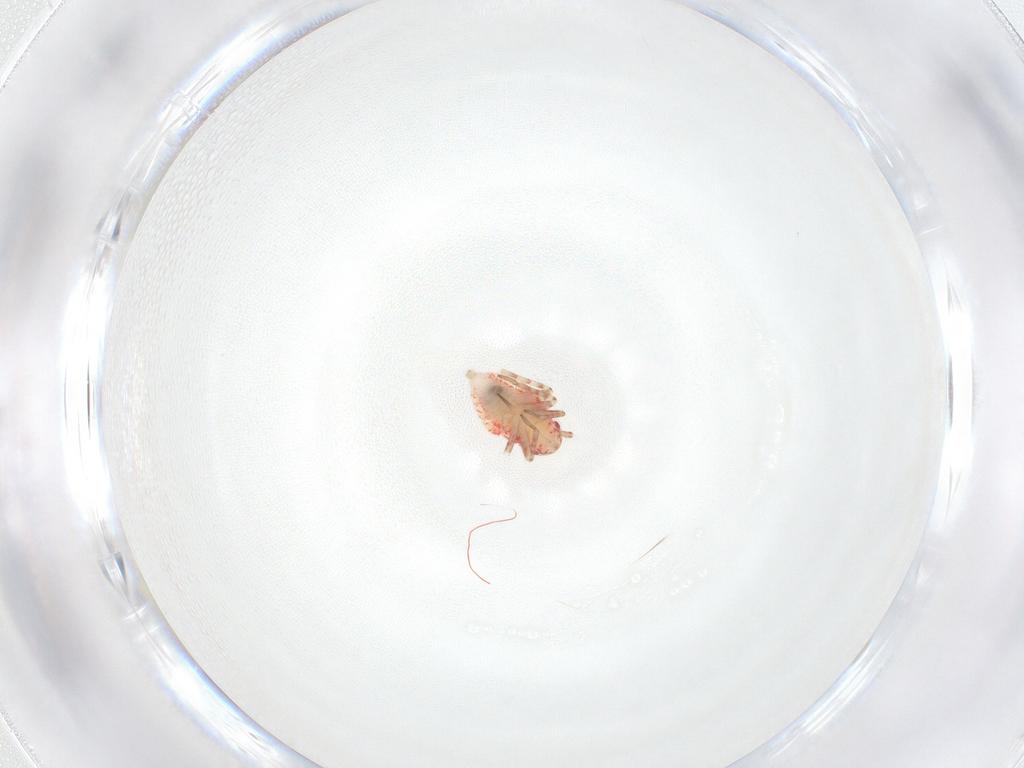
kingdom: Animalia
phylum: Arthropoda
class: Insecta
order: Hemiptera
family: Miridae
